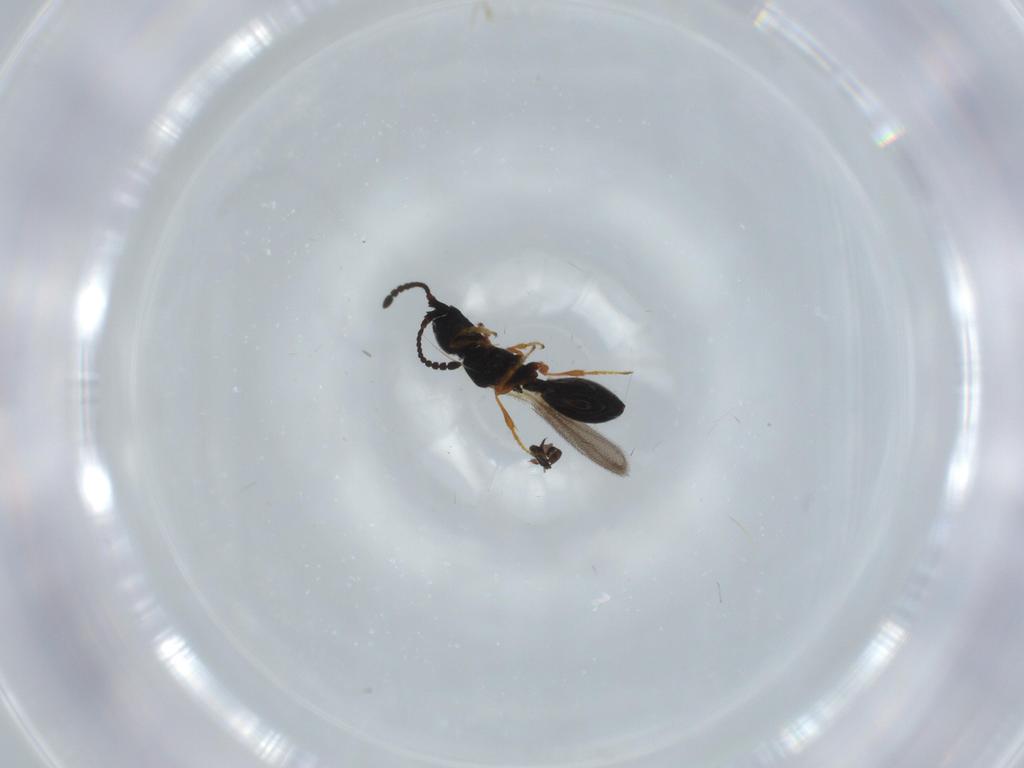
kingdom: Animalia
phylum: Arthropoda
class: Insecta
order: Hymenoptera
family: Diapriidae
